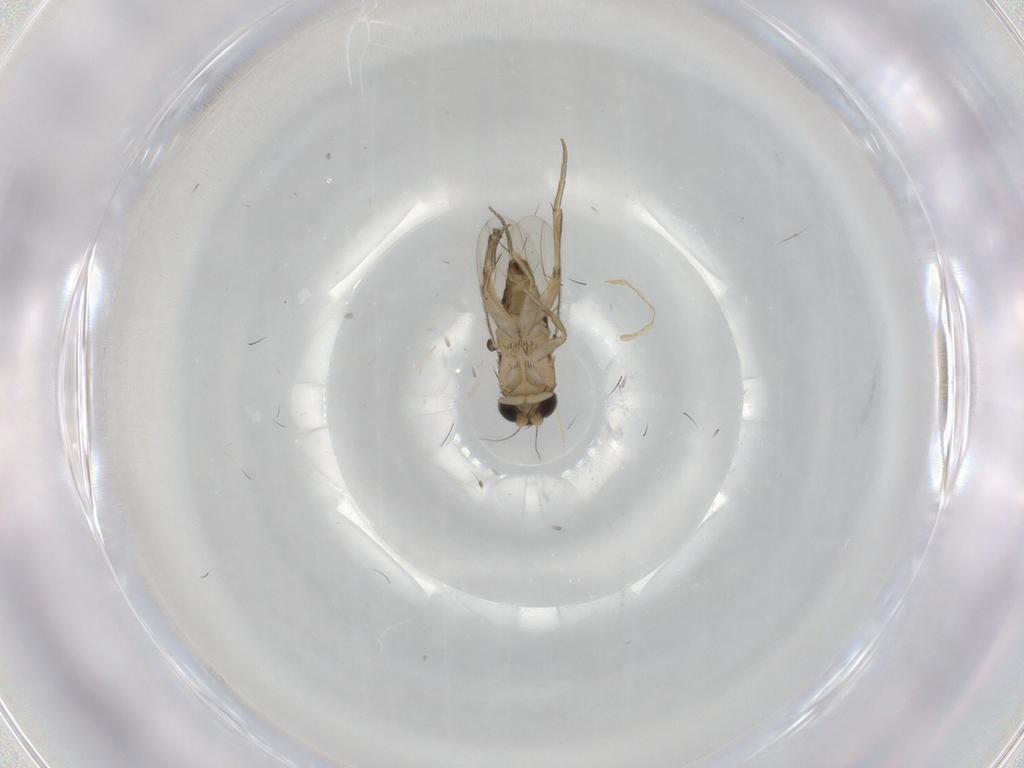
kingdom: Animalia
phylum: Arthropoda
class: Insecta
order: Diptera
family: Phoridae
